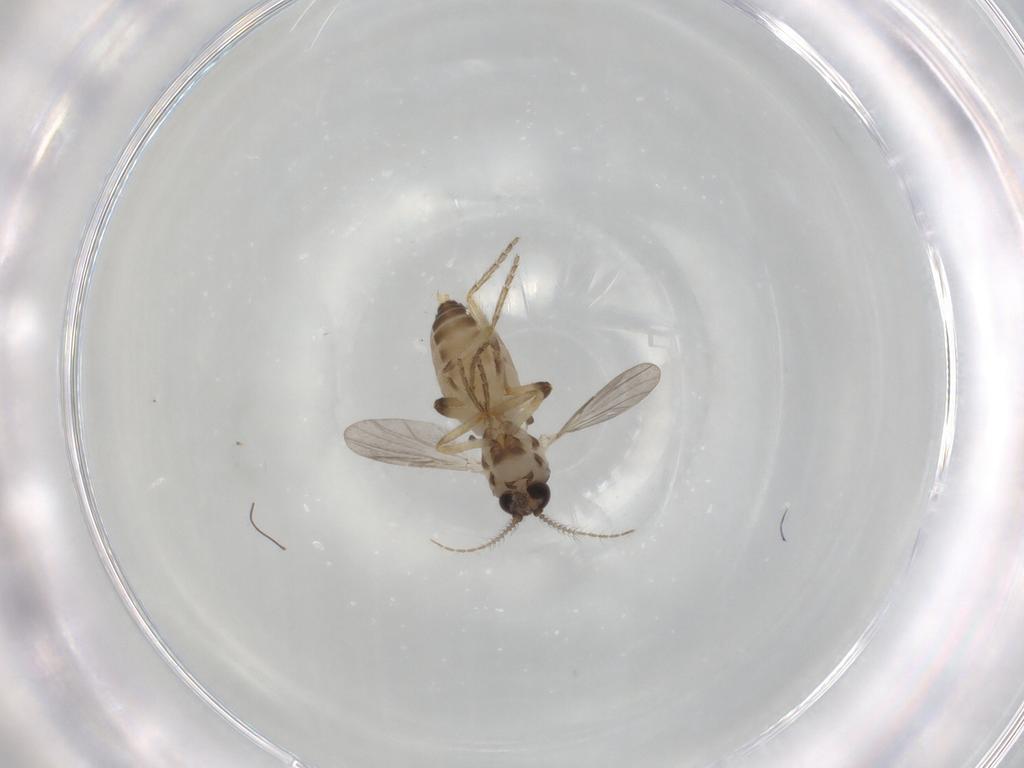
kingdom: Animalia
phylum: Arthropoda
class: Insecta
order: Diptera
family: Ceratopogonidae
